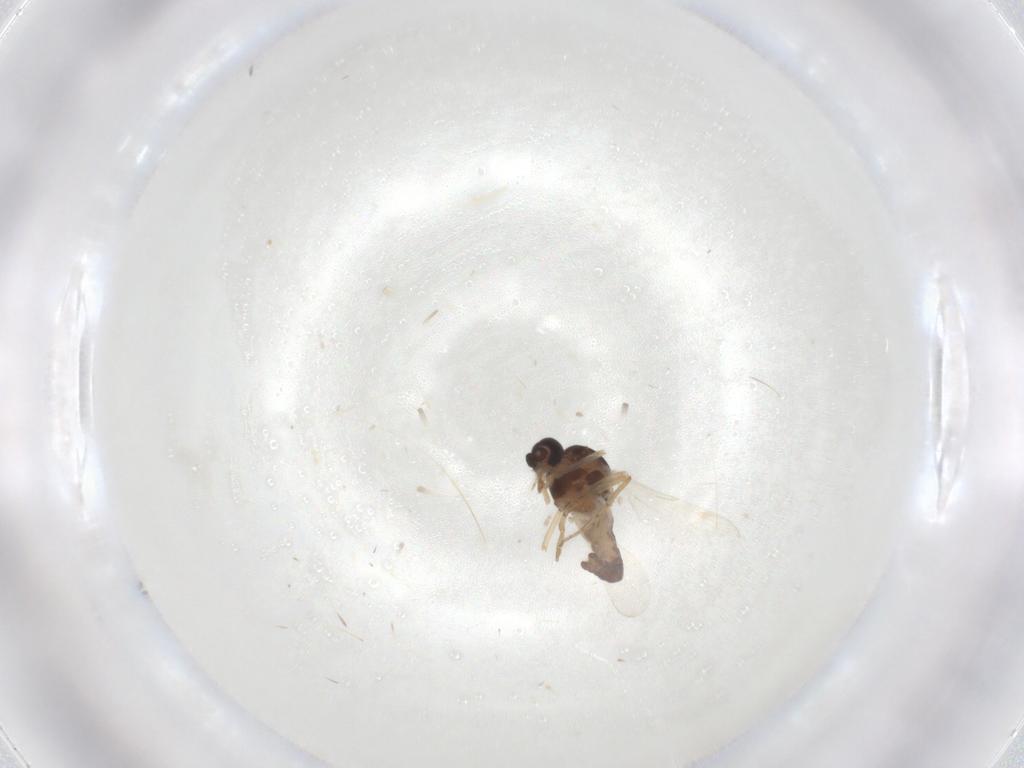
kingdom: Animalia
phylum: Arthropoda
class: Insecta
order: Diptera
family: Ceratopogonidae
